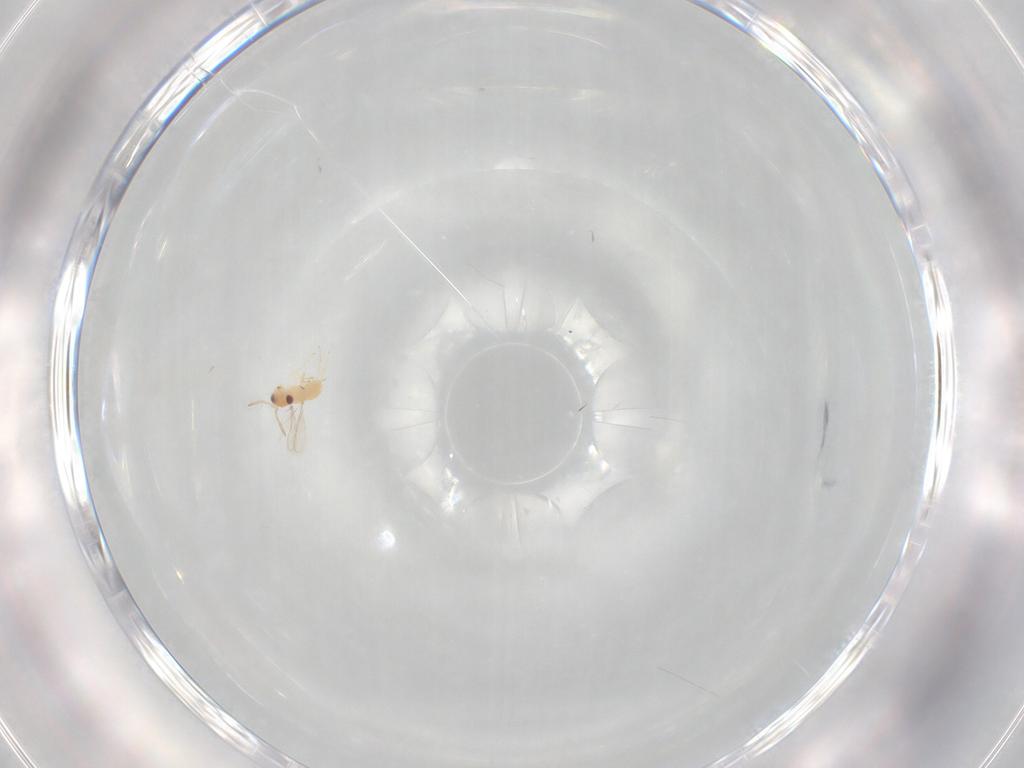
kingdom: Animalia
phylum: Arthropoda
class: Insecta
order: Hymenoptera
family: Aphelinidae
